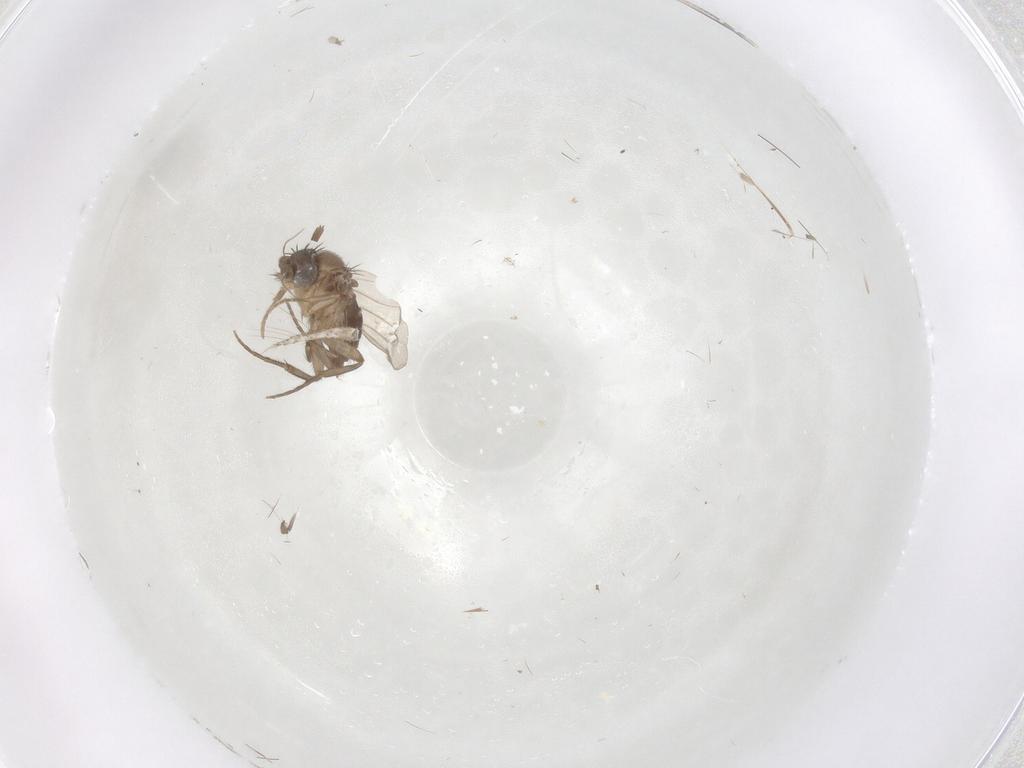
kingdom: Animalia
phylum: Arthropoda
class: Insecta
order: Diptera
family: Phoridae
